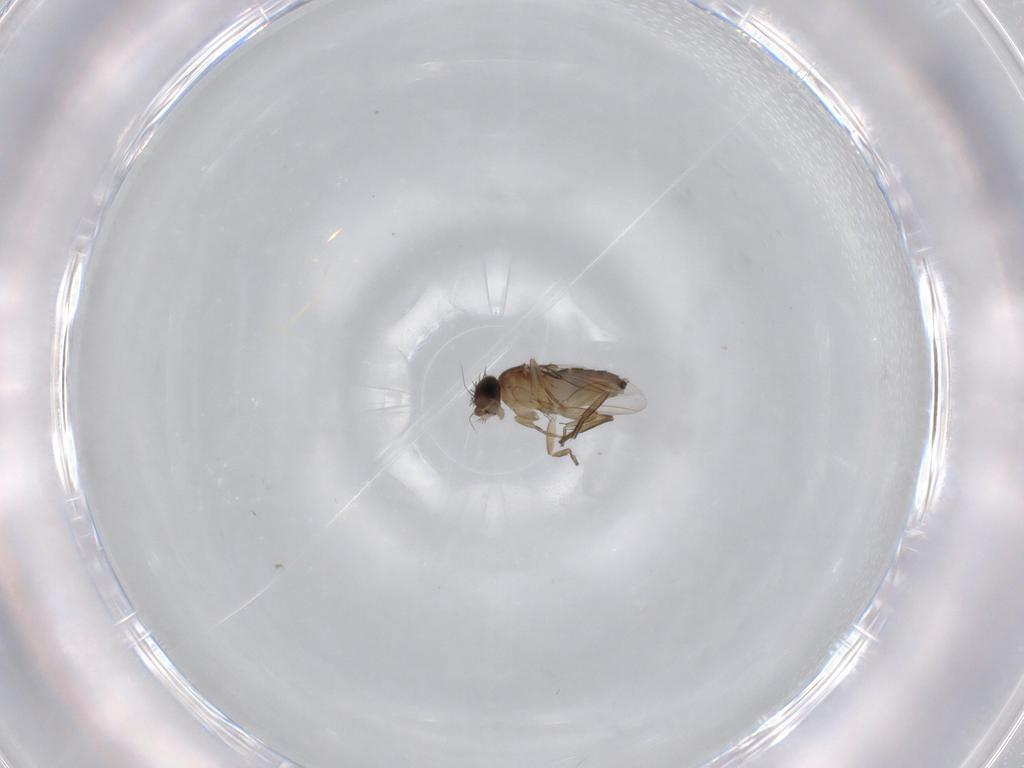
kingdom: Animalia
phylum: Arthropoda
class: Insecta
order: Diptera
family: Phoridae
